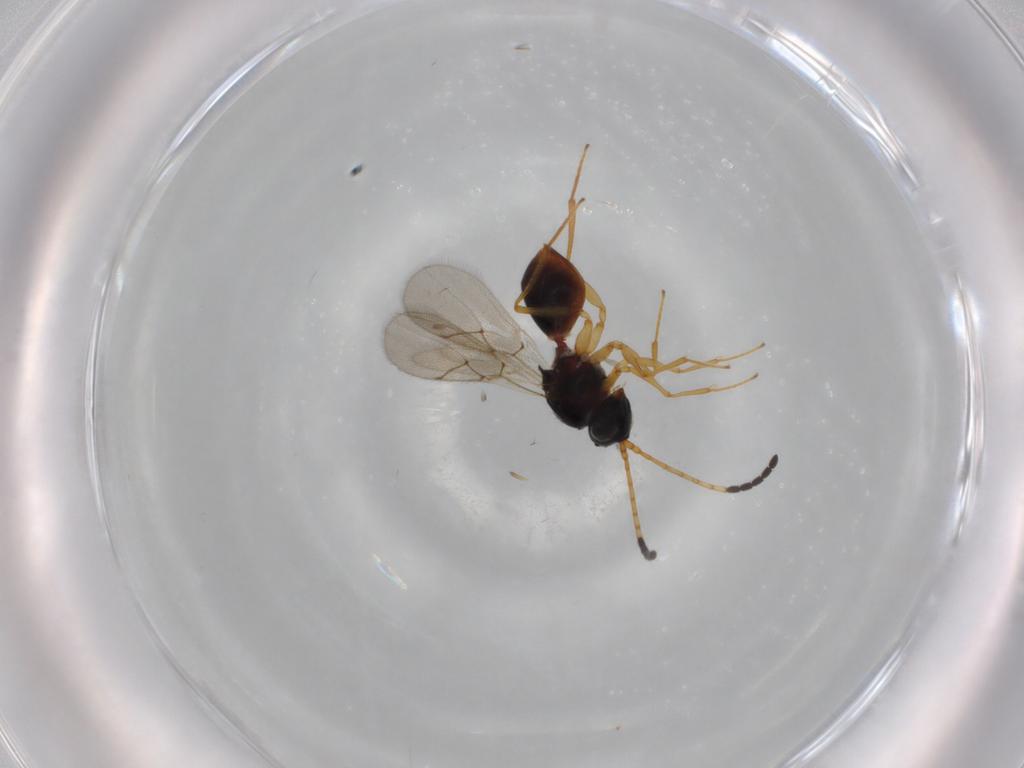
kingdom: Animalia
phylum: Arthropoda
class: Insecta
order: Hymenoptera
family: Figitidae
